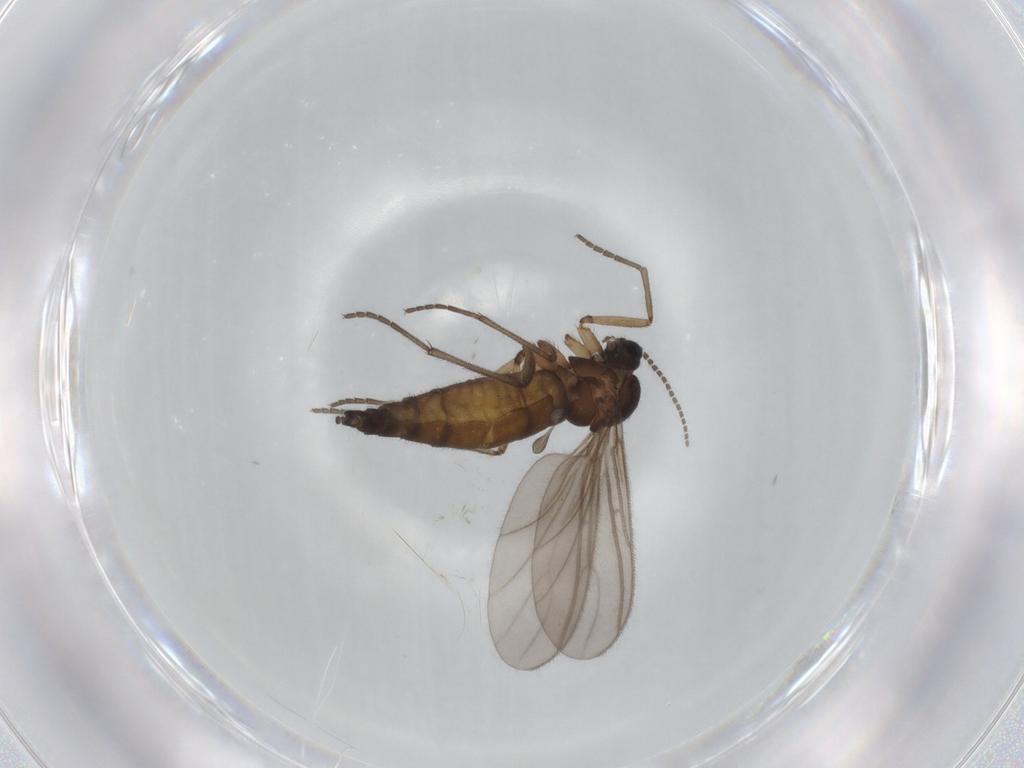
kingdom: Animalia
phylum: Arthropoda
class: Insecta
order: Diptera
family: Sciaridae
